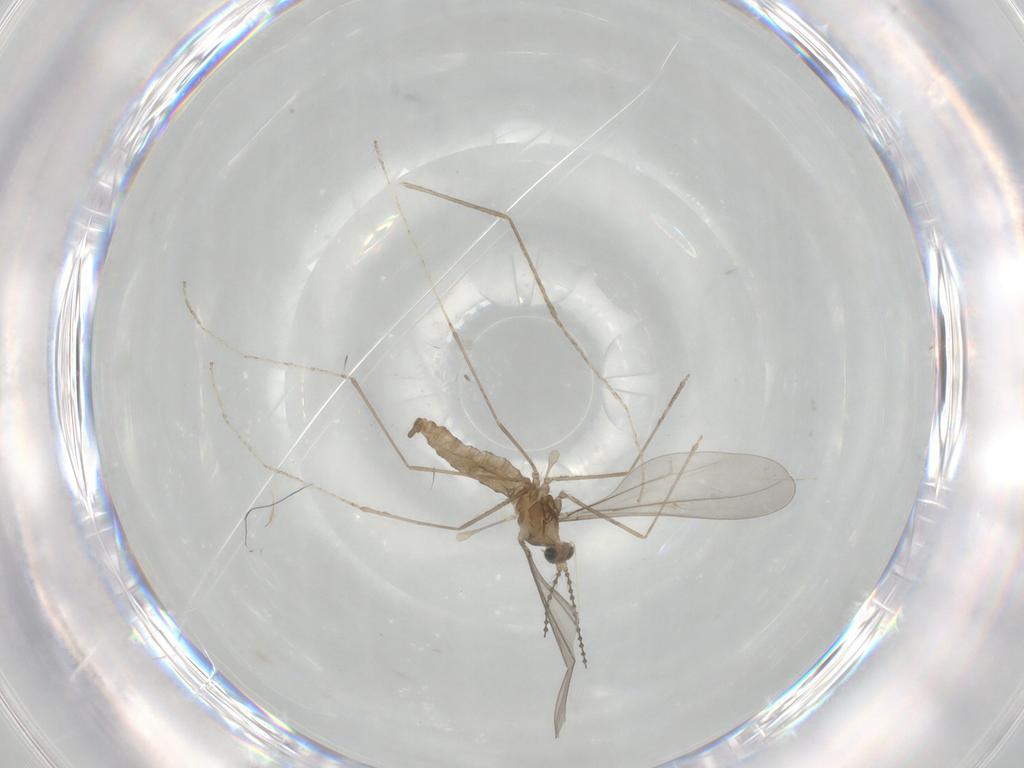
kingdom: Animalia
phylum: Arthropoda
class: Insecta
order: Diptera
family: Cecidomyiidae
